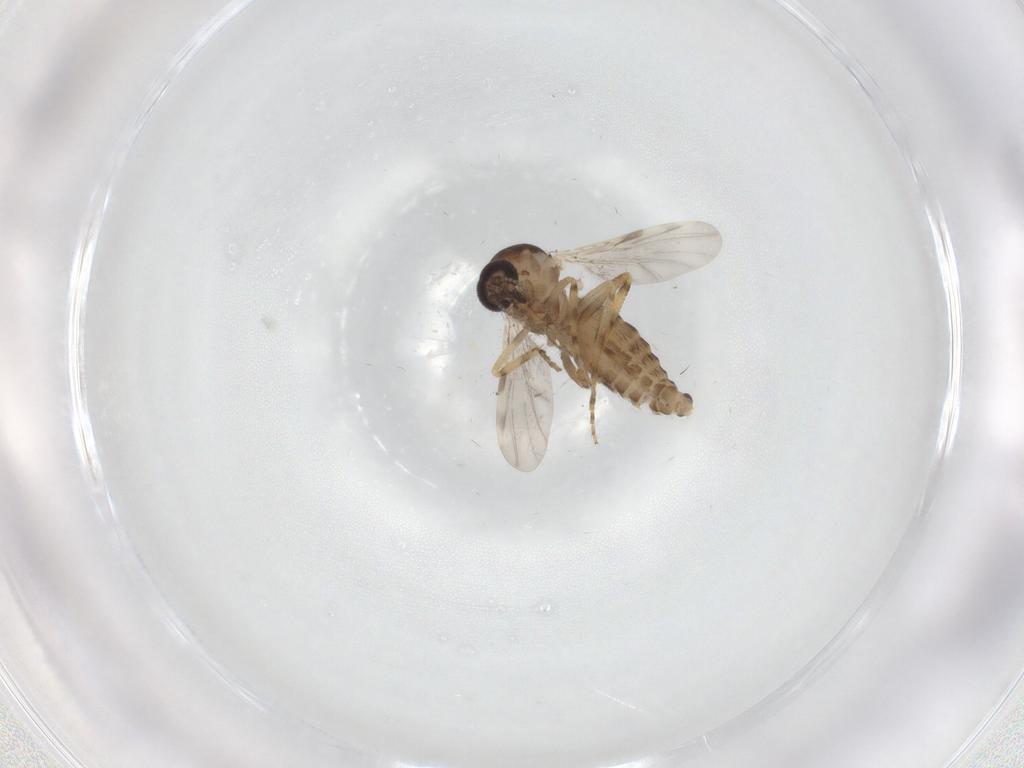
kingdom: Animalia
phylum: Arthropoda
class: Insecta
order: Diptera
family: Ceratopogonidae
